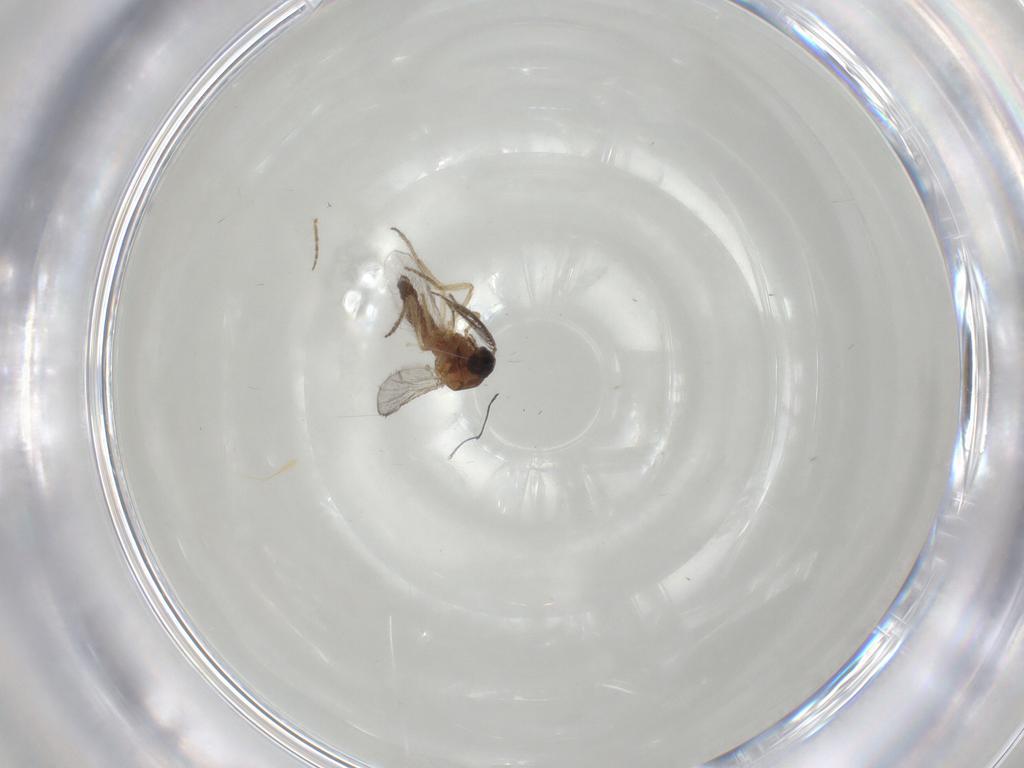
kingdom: Animalia
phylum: Arthropoda
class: Insecta
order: Diptera
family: Ceratopogonidae
